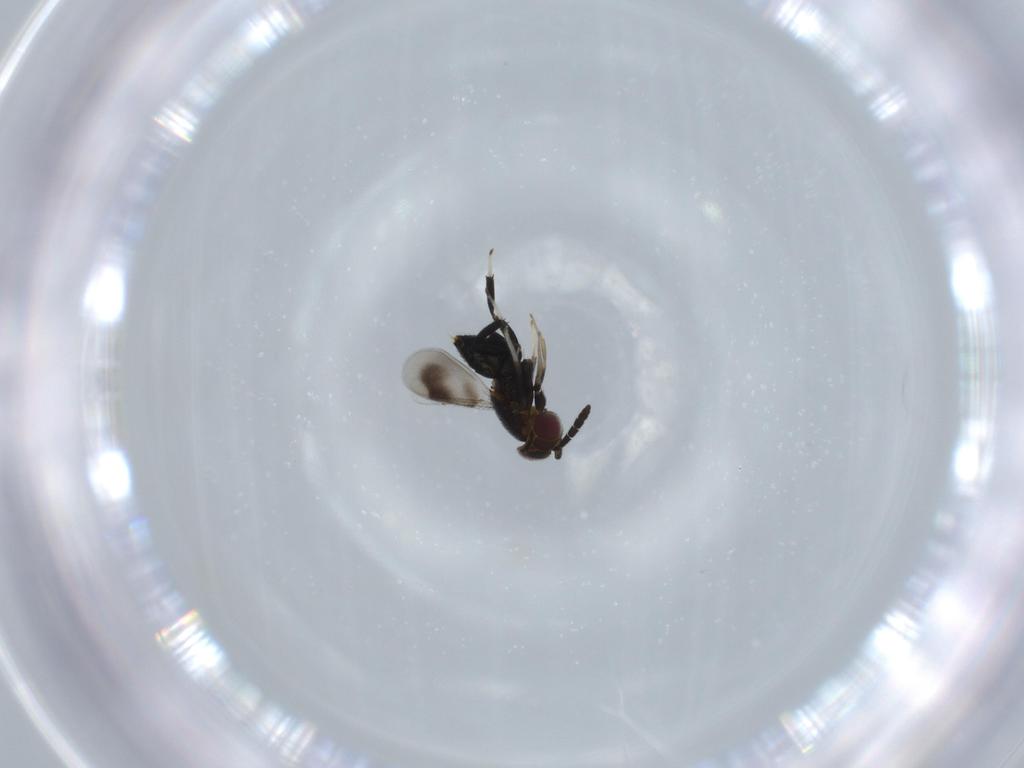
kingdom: Animalia
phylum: Arthropoda
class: Insecta
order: Hymenoptera
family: Aphelinidae
